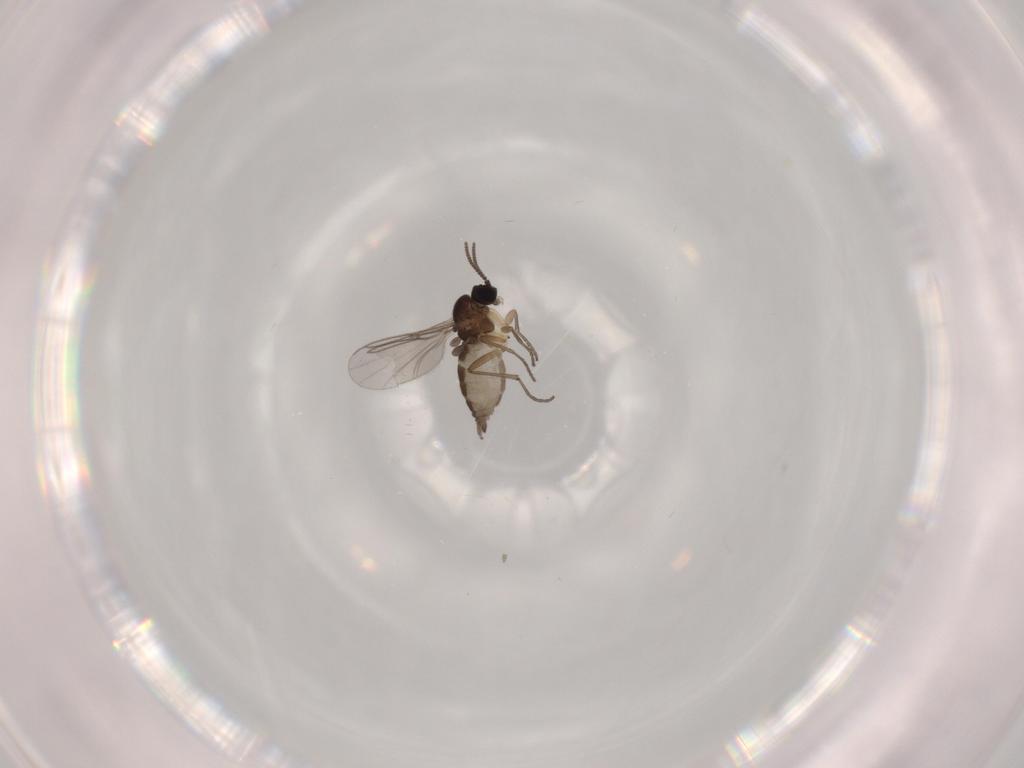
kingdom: Animalia
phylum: Arthropoda
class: Insecta
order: Diptera
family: Sciaridae
